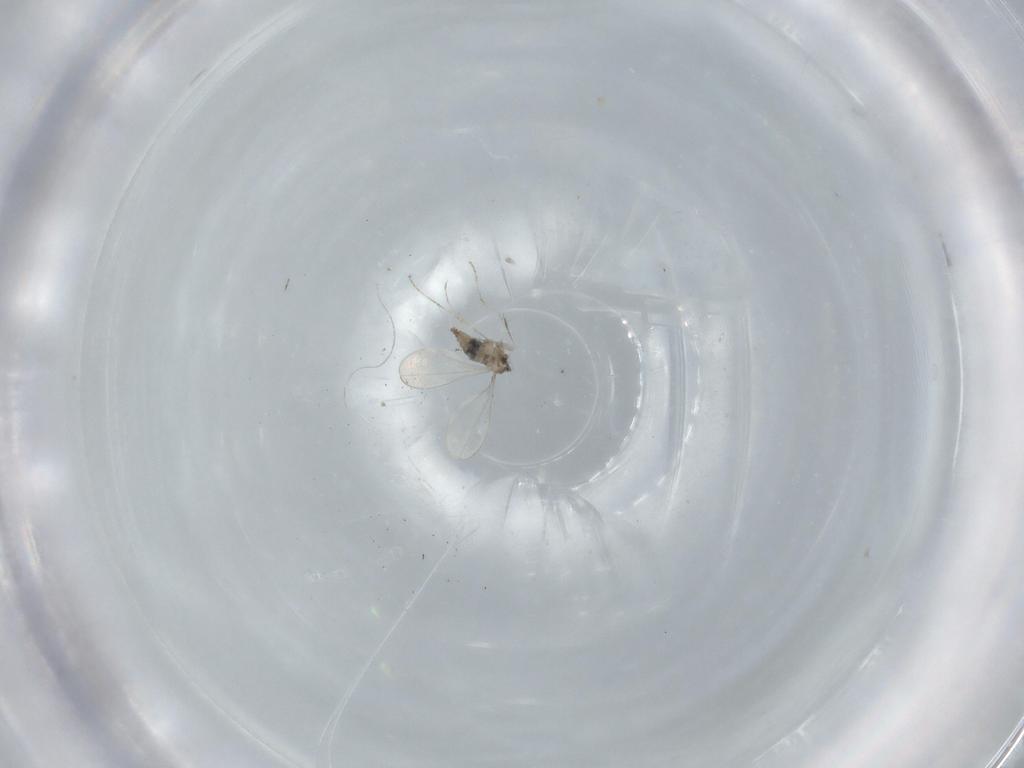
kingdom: Animalia
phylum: Arthropoda
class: Insecta
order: Diptera
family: Cecidomyiidae
